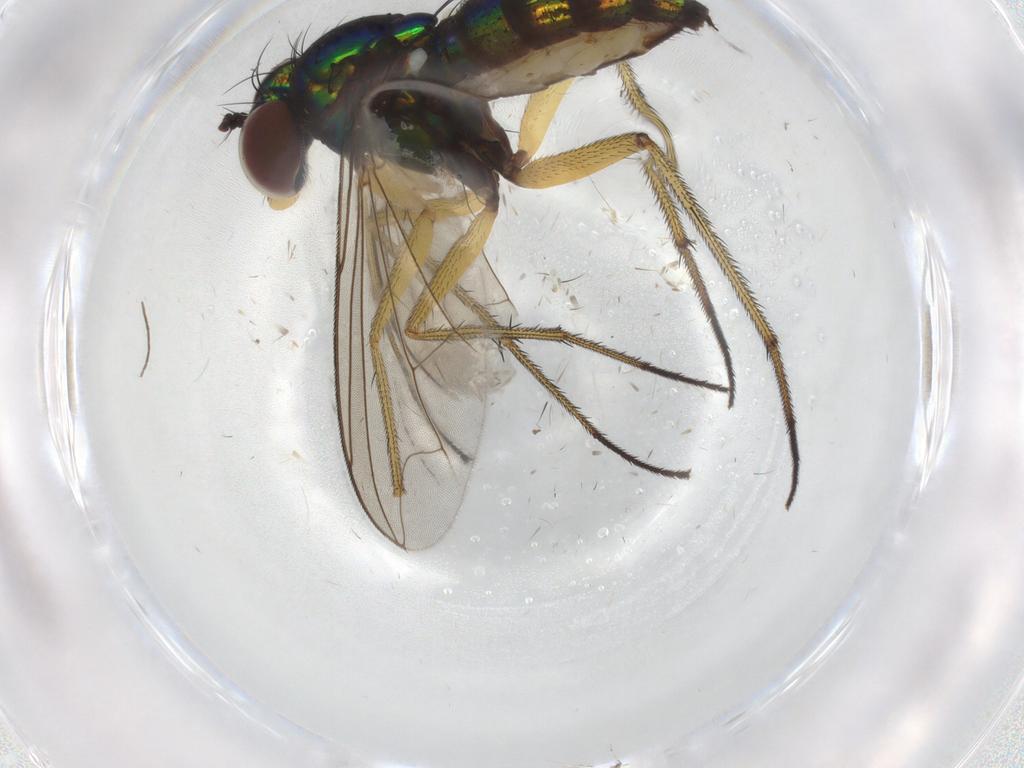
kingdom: Animalia
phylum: Arthropoda
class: Insecta
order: Diptera
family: Dolichopodidae
